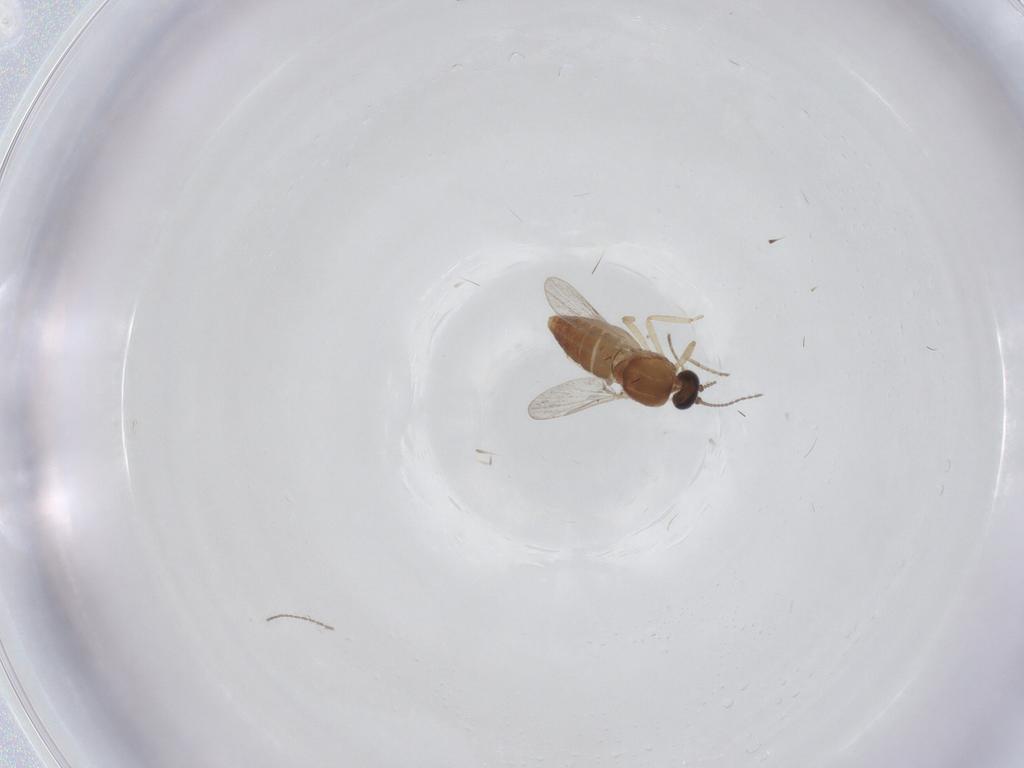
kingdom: Animalia
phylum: Arthropoda
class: Insecta
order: Diptera
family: Ceratopogonidae
